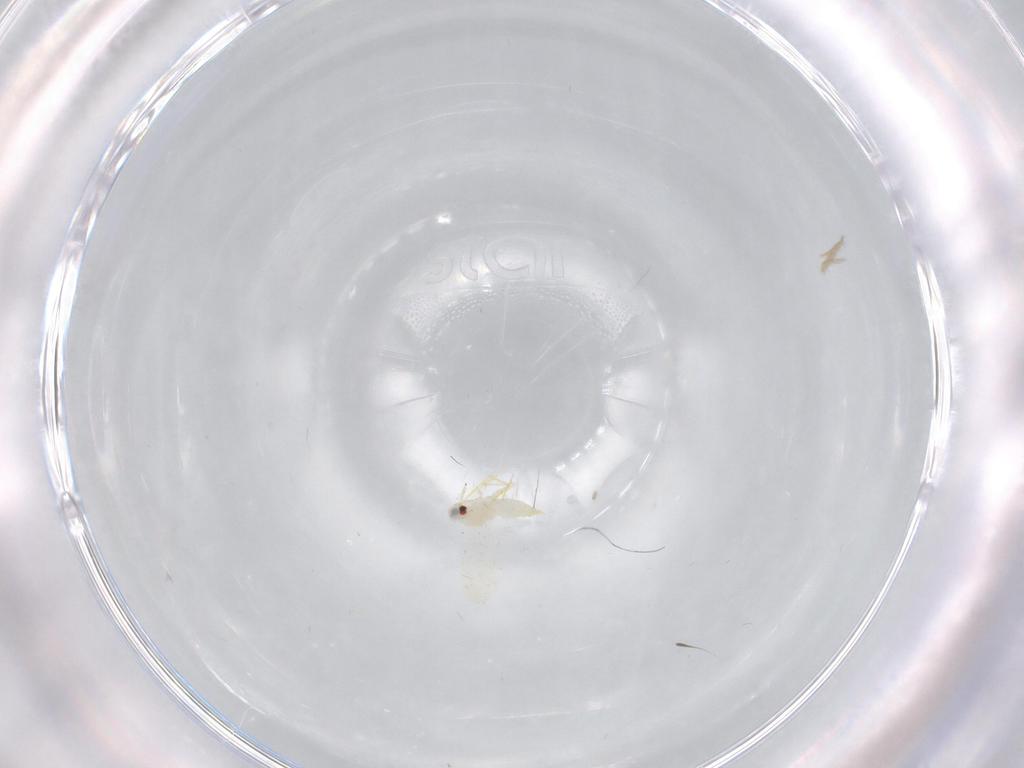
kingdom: Animalia
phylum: Arthropoda
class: Insecta
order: Hemiptera
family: Aleyrodidae
